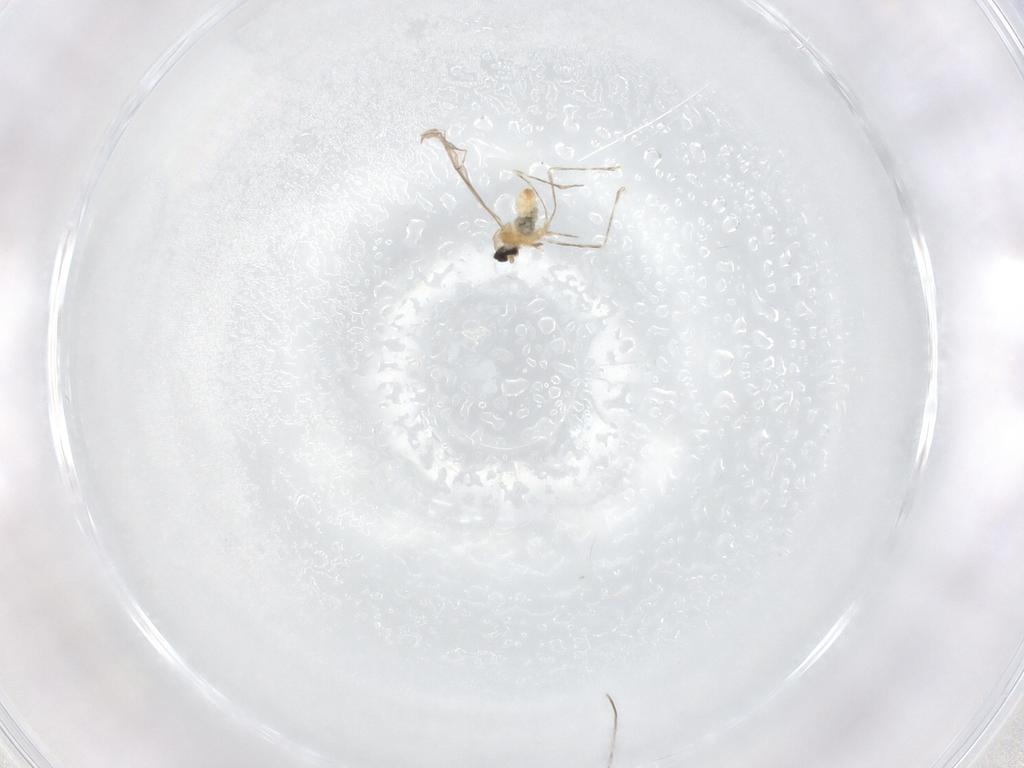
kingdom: Animalia
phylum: Arthropoda
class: Insecta
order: Diptera
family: Cecidomyiidae
